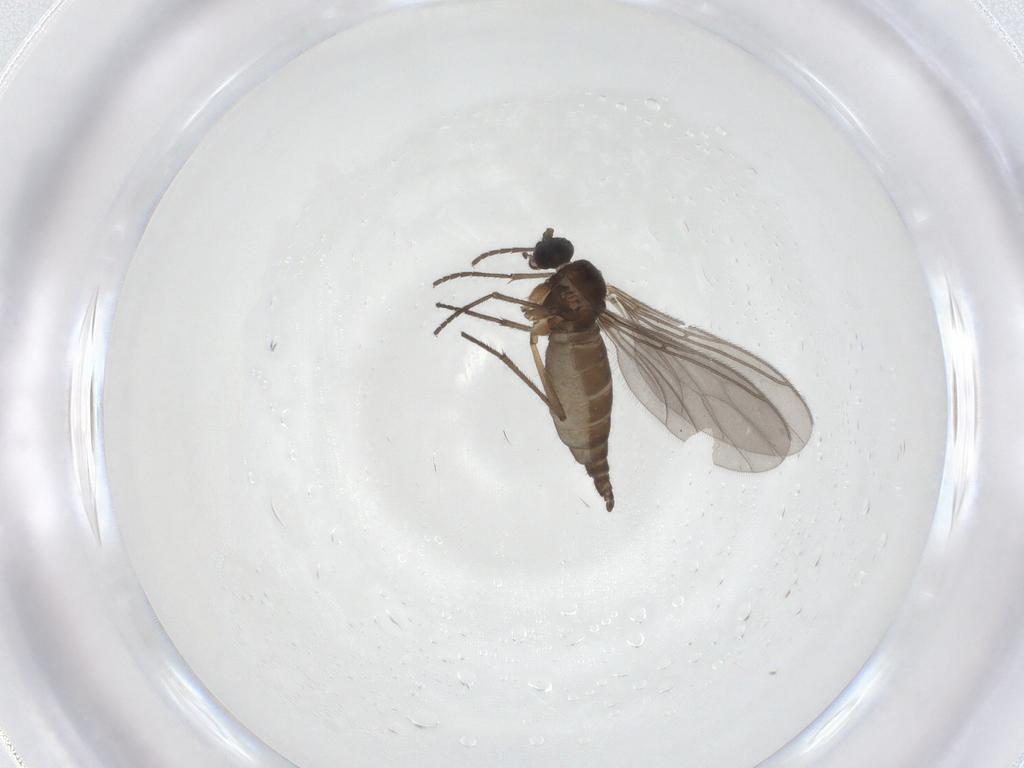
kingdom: Animalia
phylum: Arthropoda
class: Insecta
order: Diptera
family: Sciaridae
